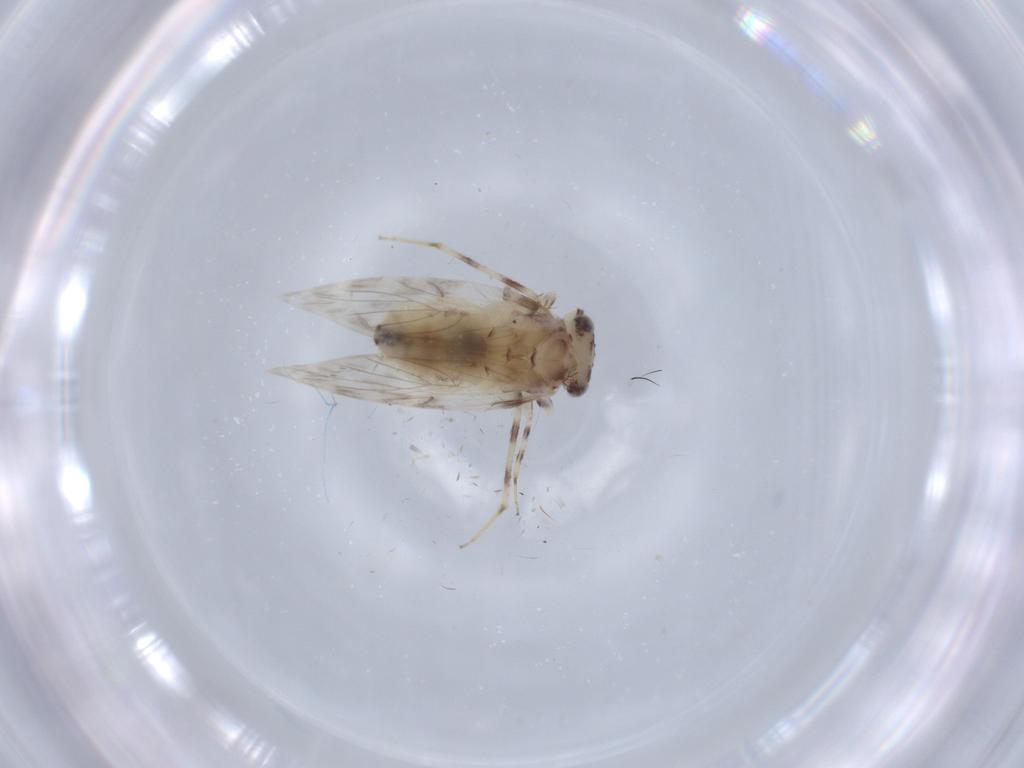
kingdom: Animalia
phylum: Arthropoda
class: Insecta
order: Psocodea
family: Lepidopsocidae
